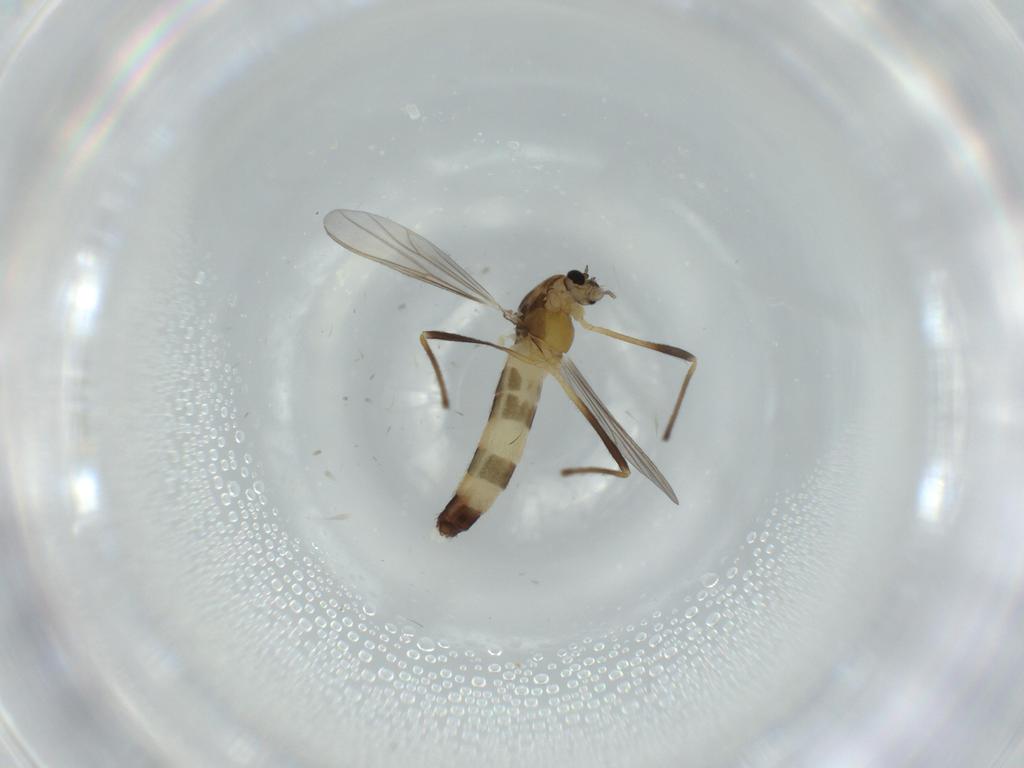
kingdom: Animalia
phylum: Arthropoda
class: Insecta
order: Diptera
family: Chironomidae
